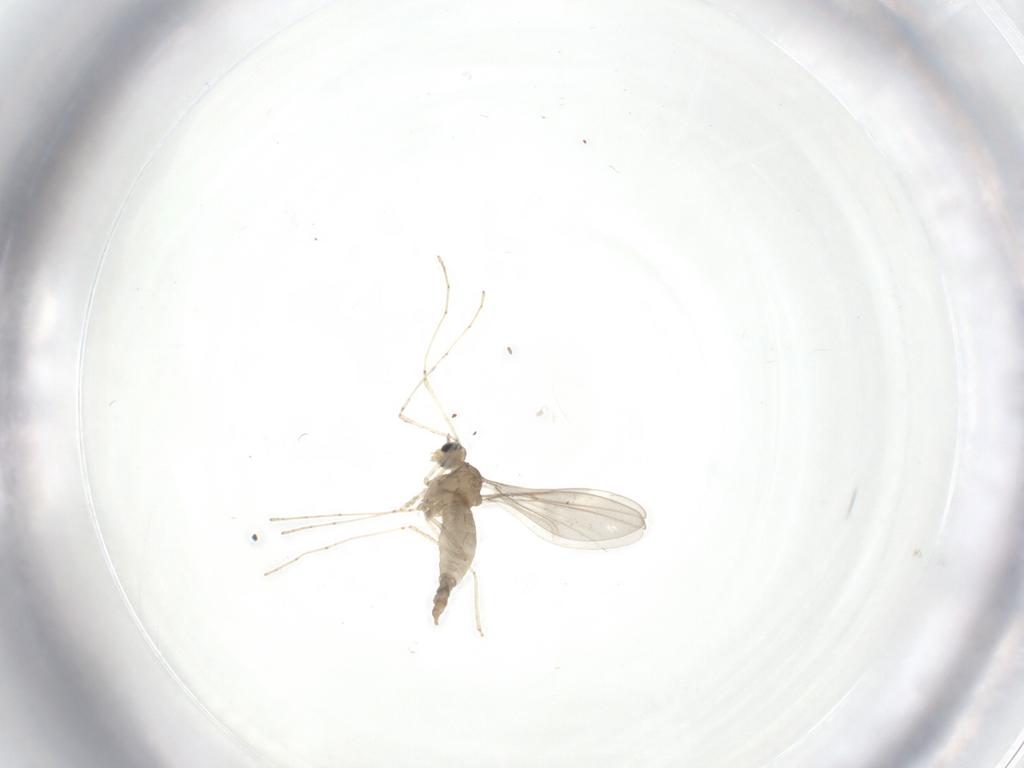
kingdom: Animalia
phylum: Arthropoda
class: Insecta
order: Diptera
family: Cecidomyiidae
